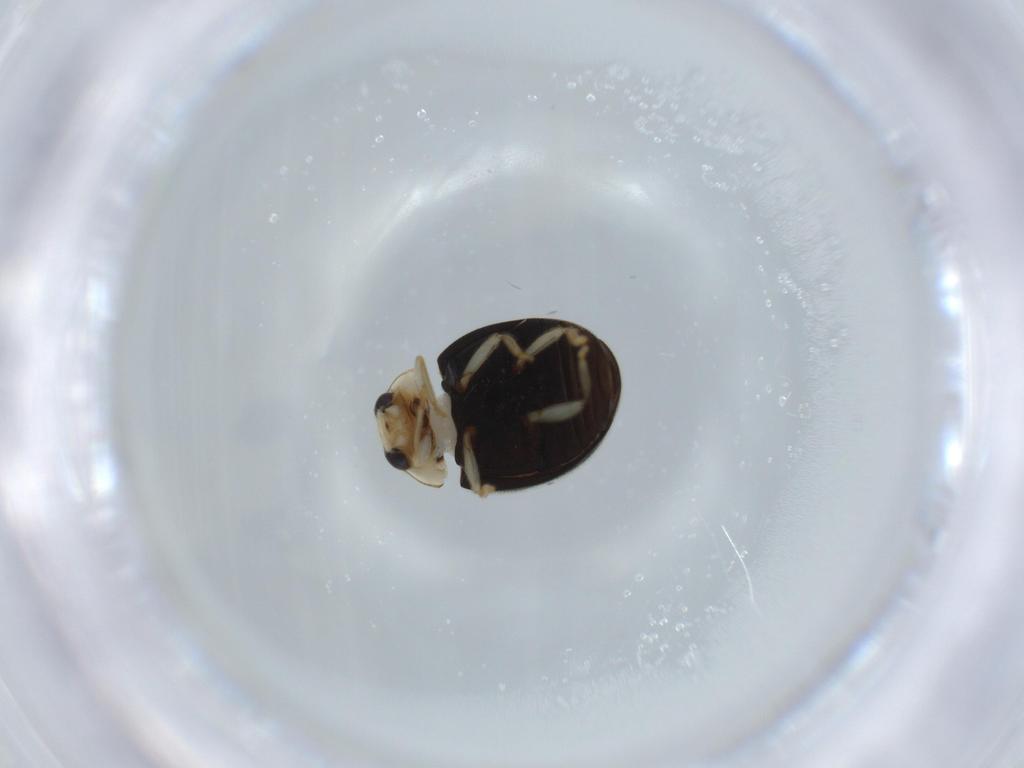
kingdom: Animalia
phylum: Arthropoda
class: Insecta
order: Coleoptera
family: Coccinellidae
